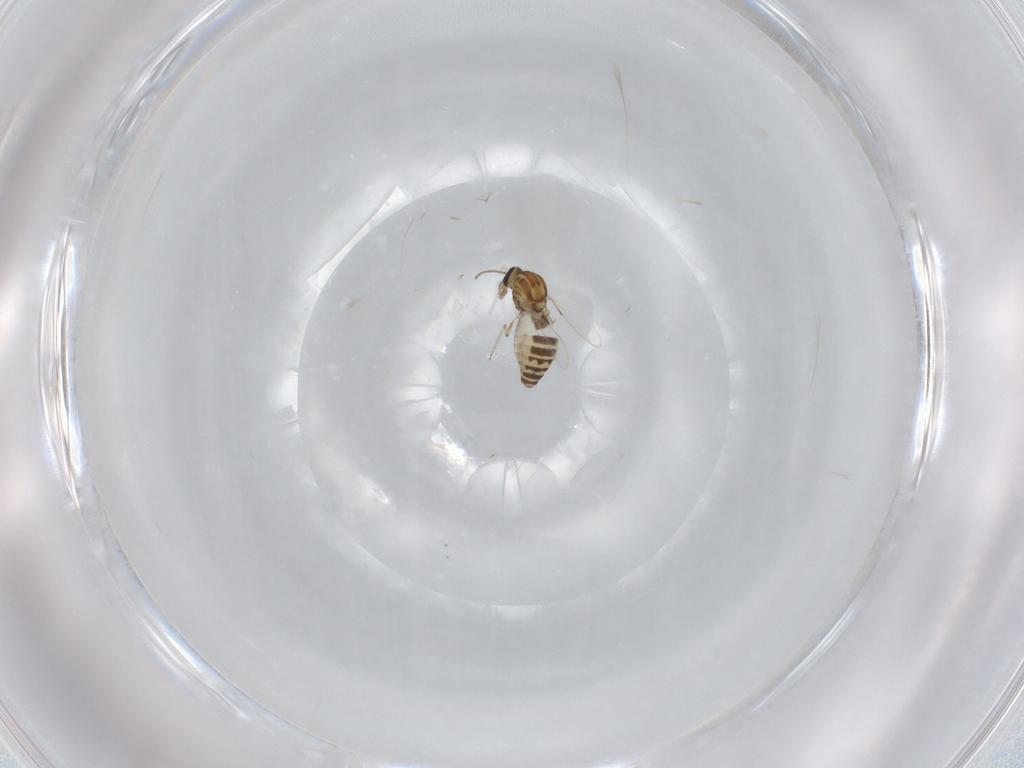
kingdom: Animalia
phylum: Arthropoda
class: Insecta
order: Diptera
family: Ceratopogonidae
